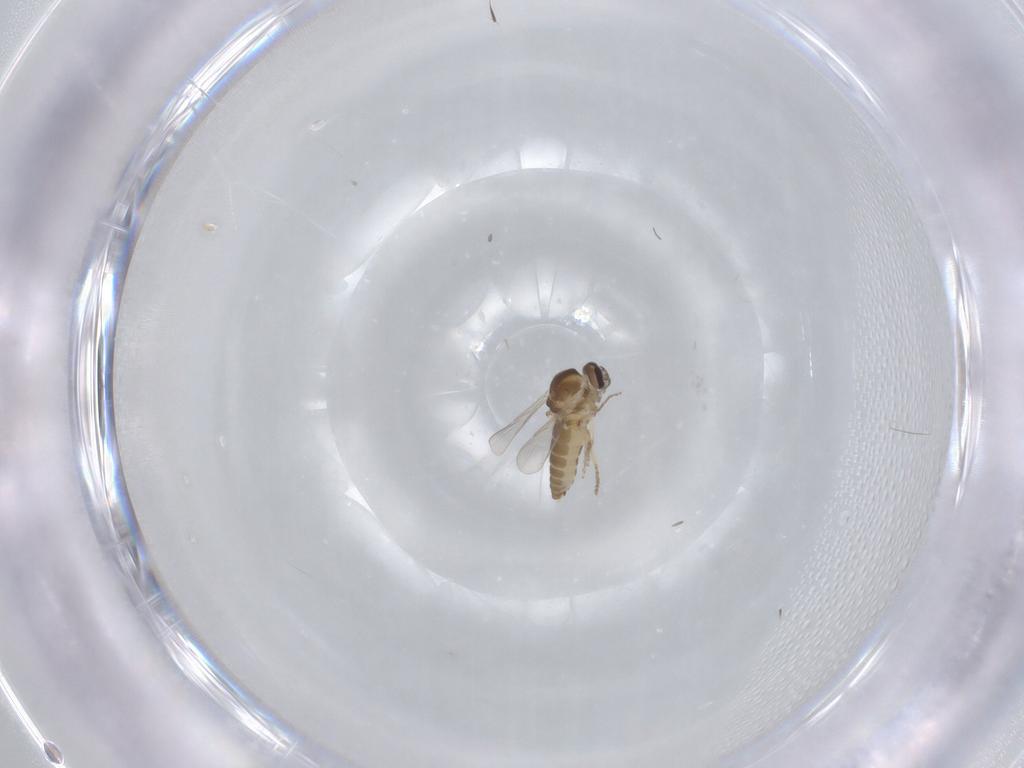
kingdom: Animalia
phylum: Arthropoda
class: Insecta
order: Diptera
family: Ceratopogonidae
